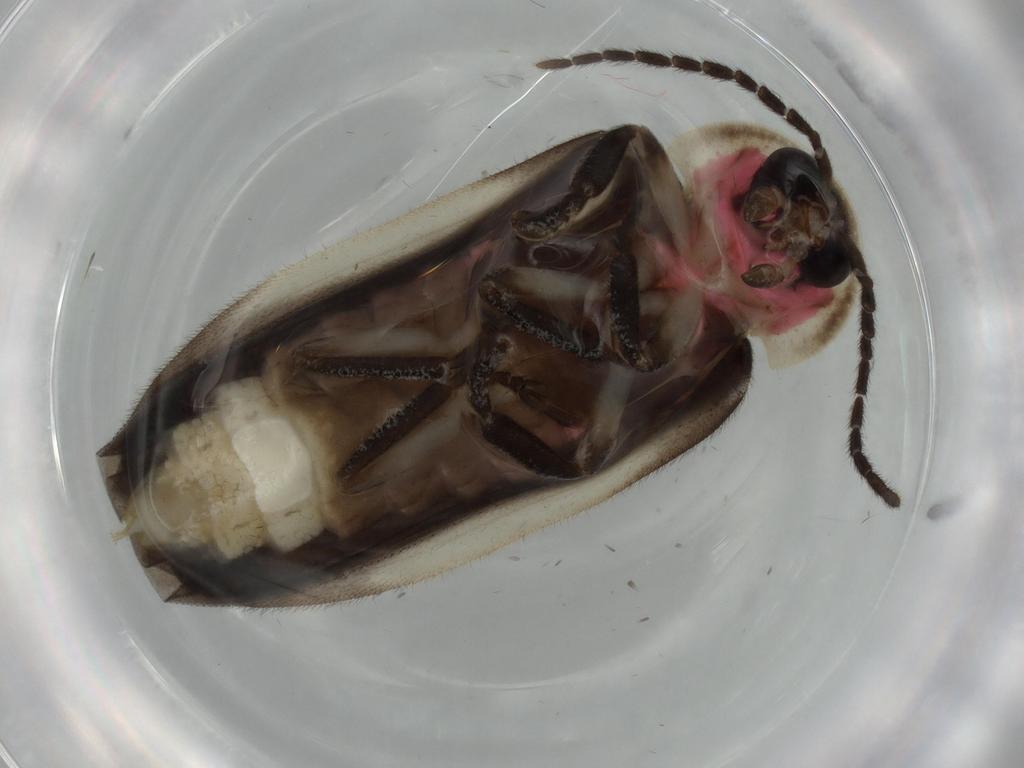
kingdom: Animalia
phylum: Arthropoda
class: Insecta
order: Coleoptera
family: Lampyridae
